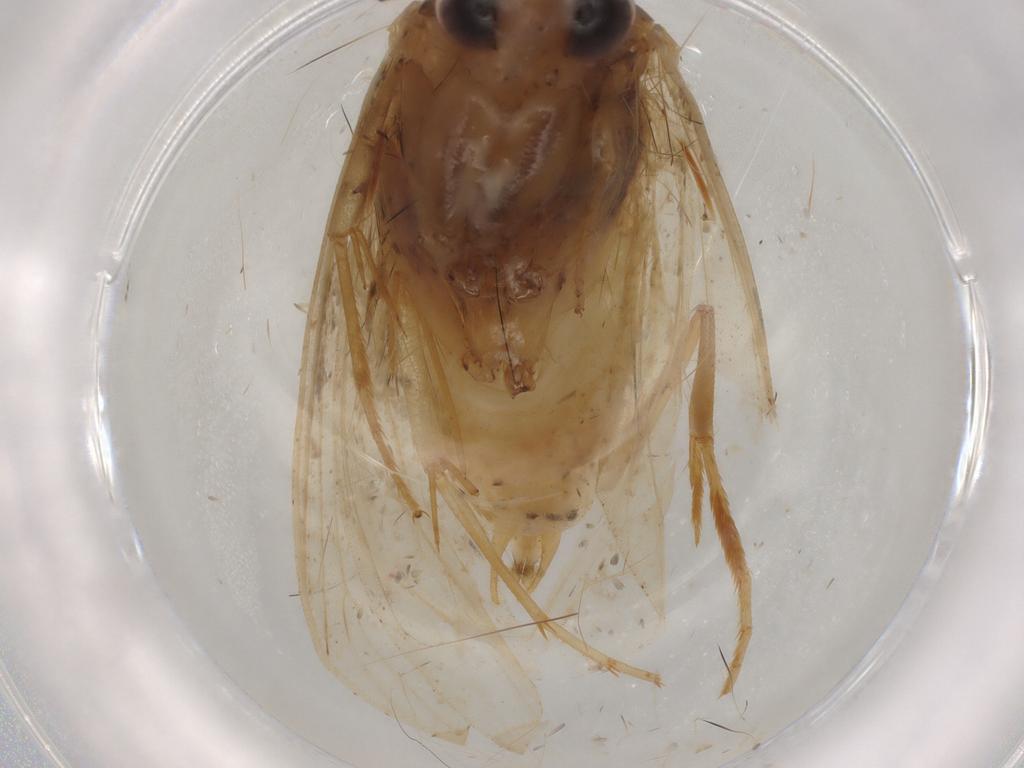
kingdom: Animalia
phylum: Arthropoda
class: Insecta
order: Lepidoptera
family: Tineidae
